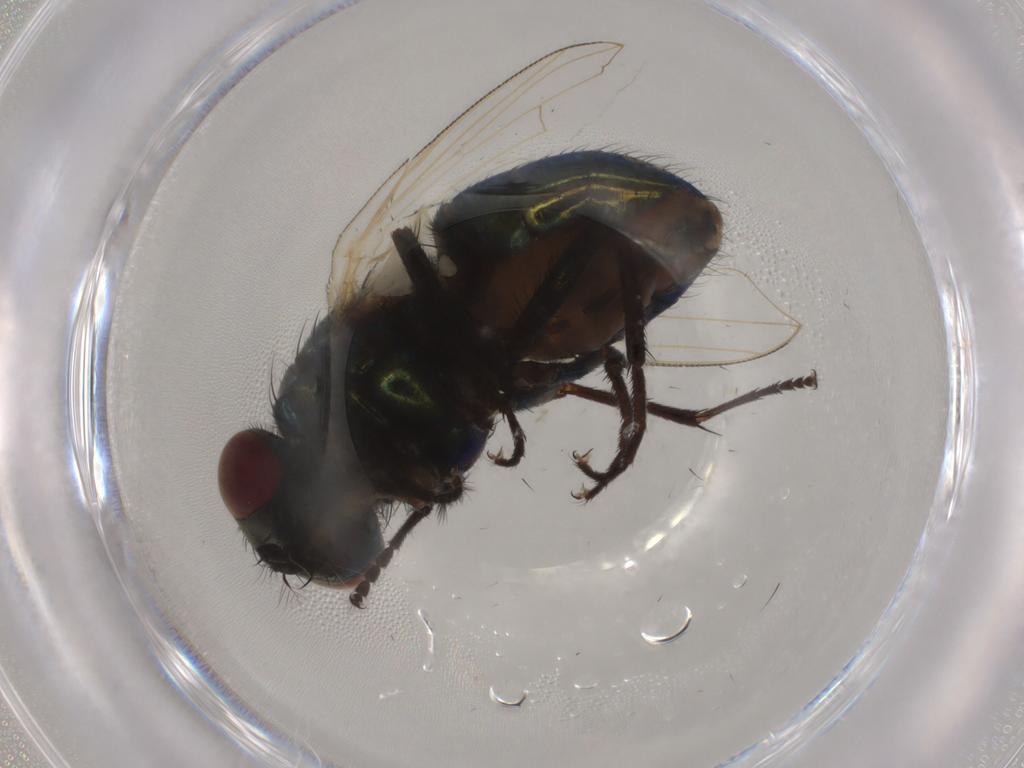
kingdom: Animalia
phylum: Arthropoda
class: Insecta
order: Diptera
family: Muscidae
